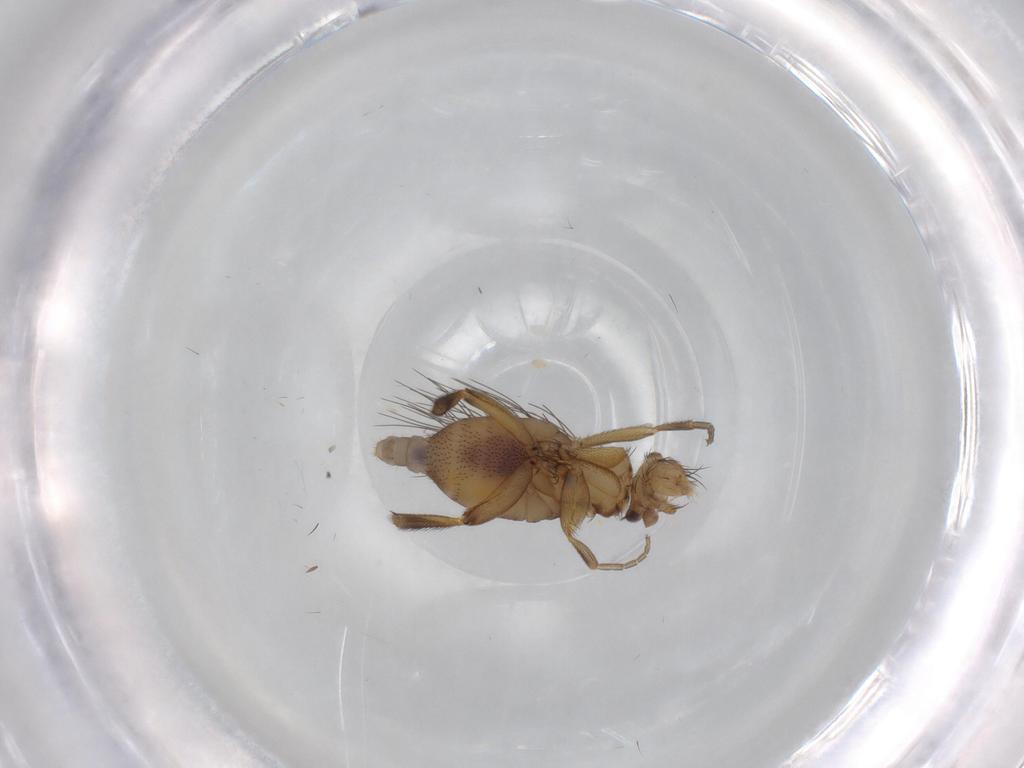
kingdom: Animalia
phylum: Arthropoda
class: Insecta
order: Diptera
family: Phoridae
